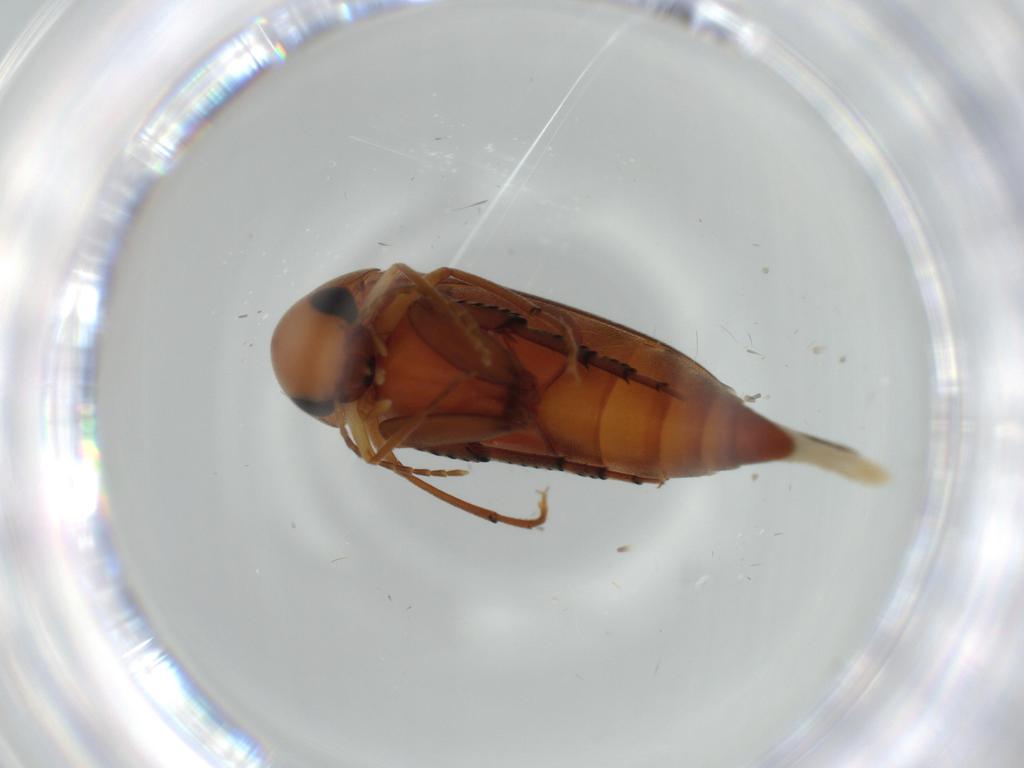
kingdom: Animalia
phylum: Arthropoda
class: Insecta
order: Coleoptera
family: Mordellidae
